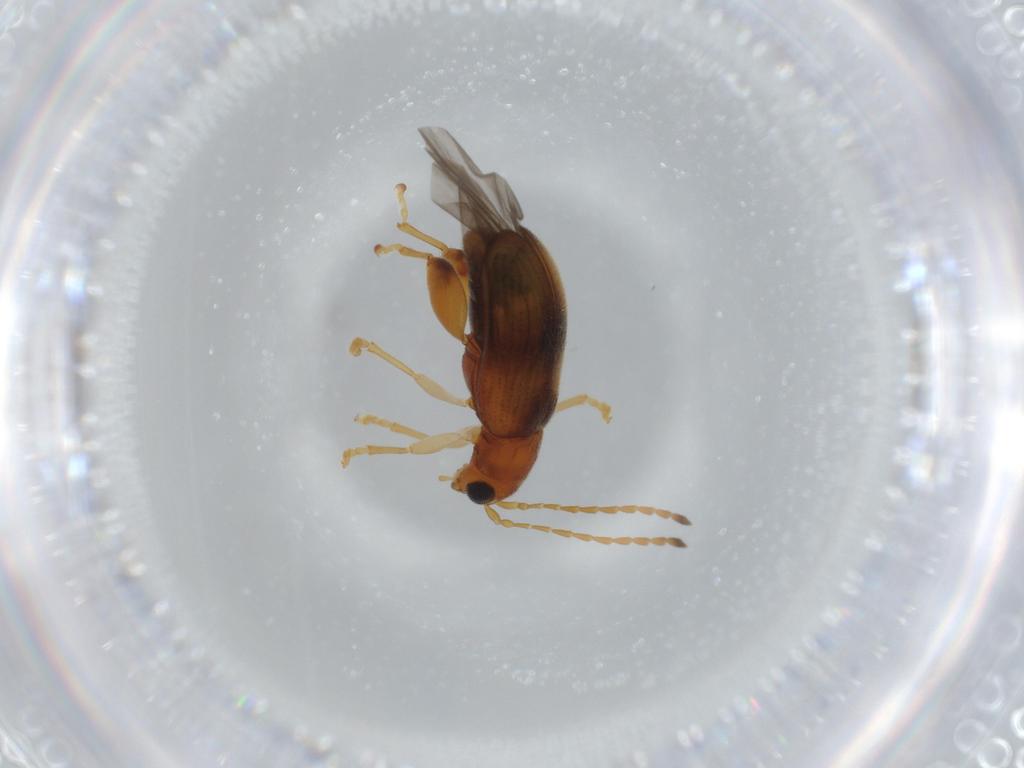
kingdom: Animalia
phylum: Arthropoda
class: Insecta
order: Coleoptera
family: Chrysomelidae
